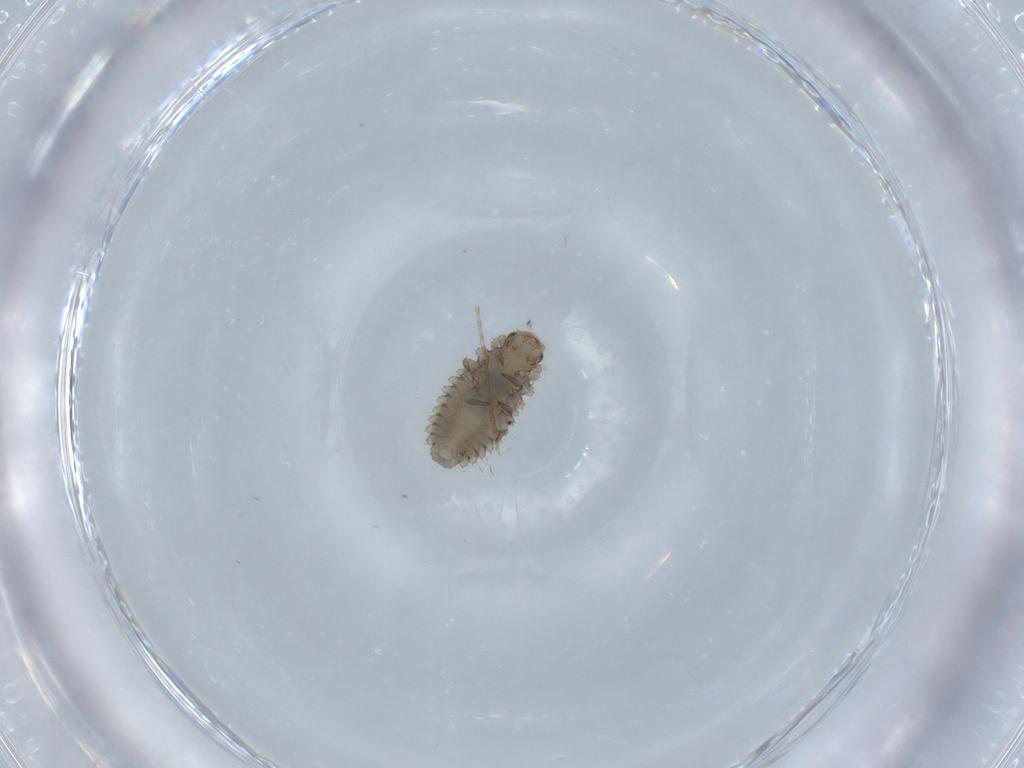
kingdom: Animalia
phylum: Arthropoda
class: Insecta
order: Coleoptera
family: Coccinellidae
